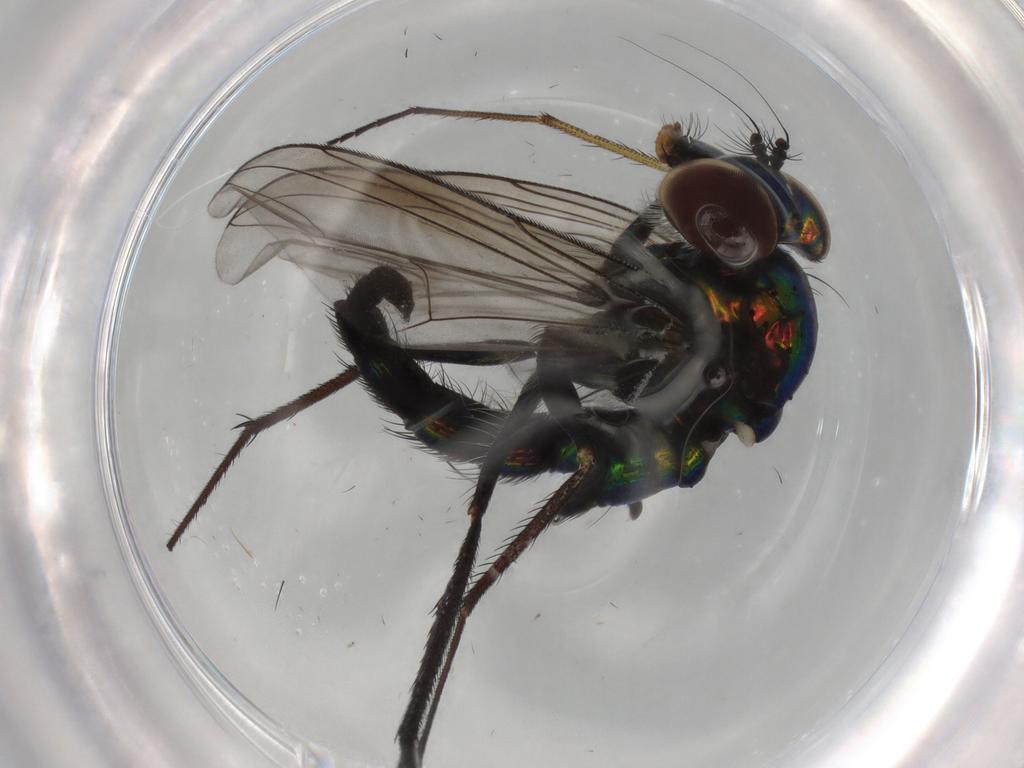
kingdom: Animalia
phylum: Arthropoda
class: Insecta
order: Diptera
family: Dolichopodidae
